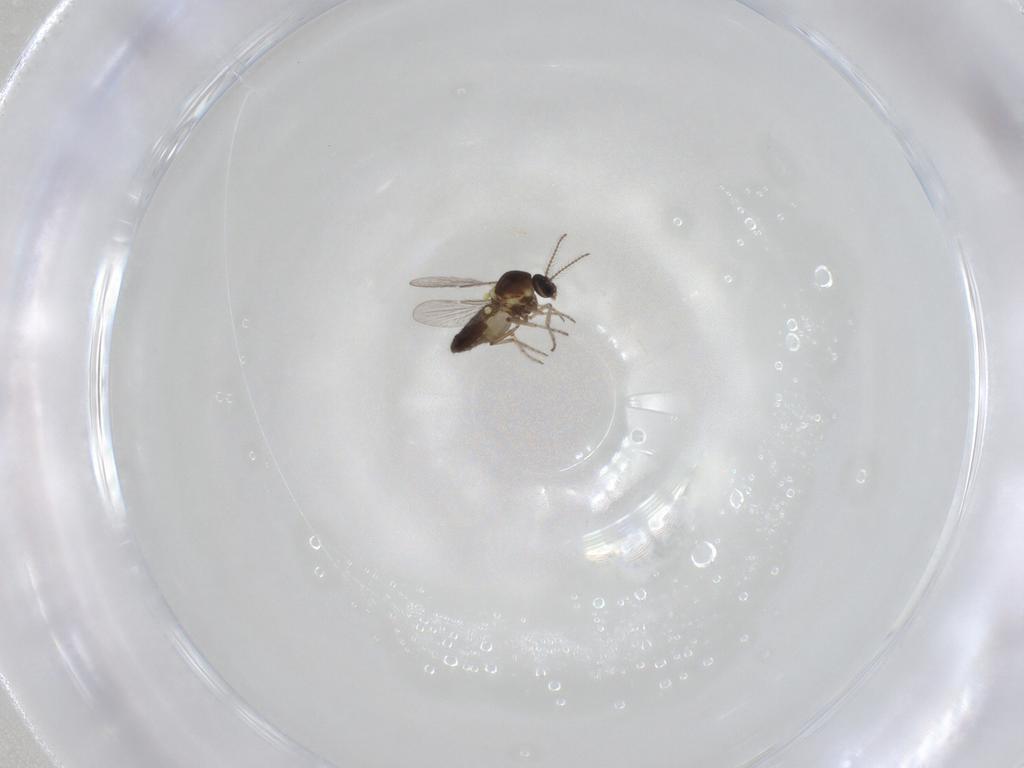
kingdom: Animalia
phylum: Arthropoda
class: Insecta
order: Diptera
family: Ceratopogonidae
